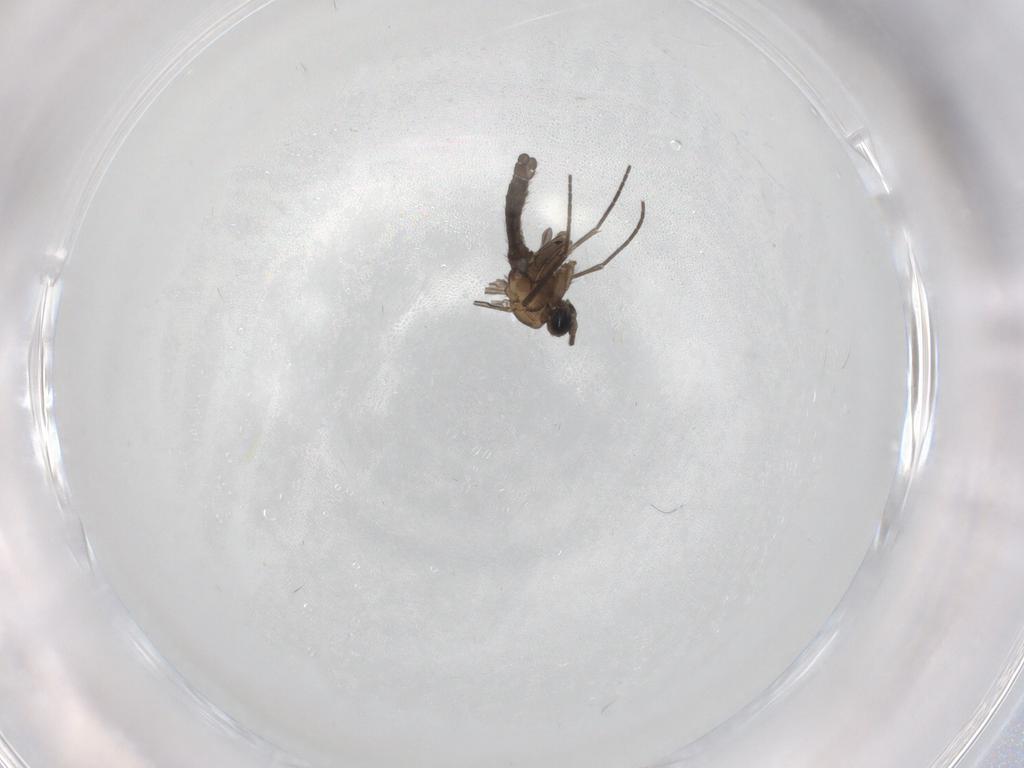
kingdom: Animalia
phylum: Arthropoda
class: Insecta
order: Diptera
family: Sciaridae
